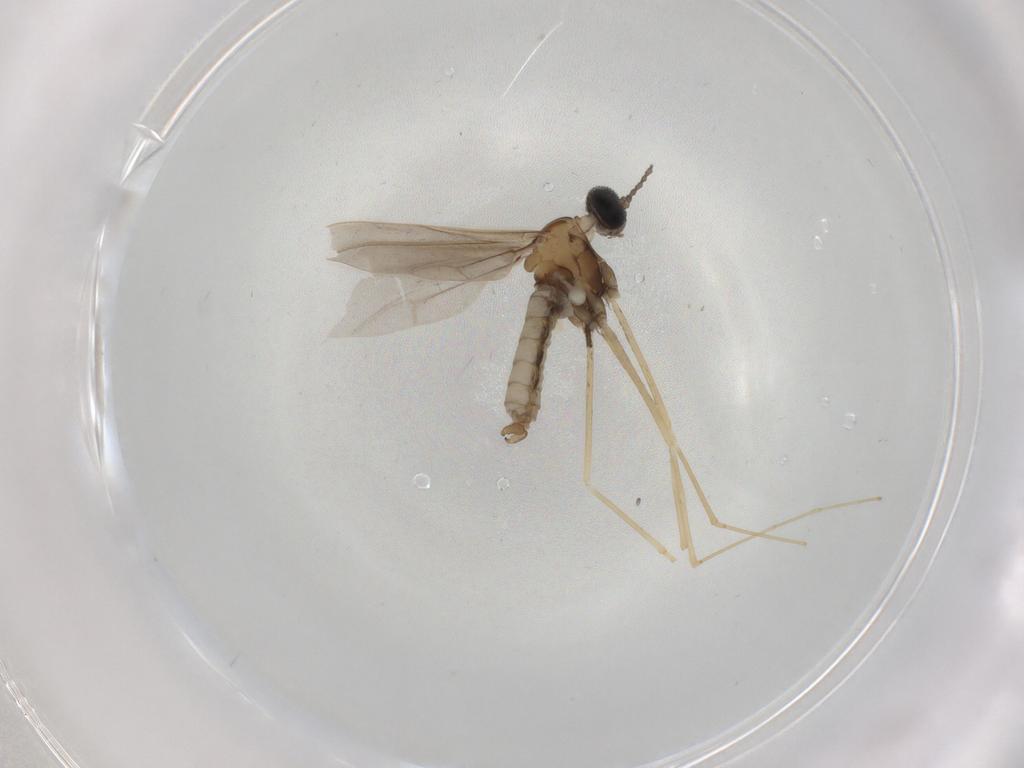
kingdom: Animalia
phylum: Arthropoda
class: Insecta
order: Diptera
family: Cecidomyiidae
